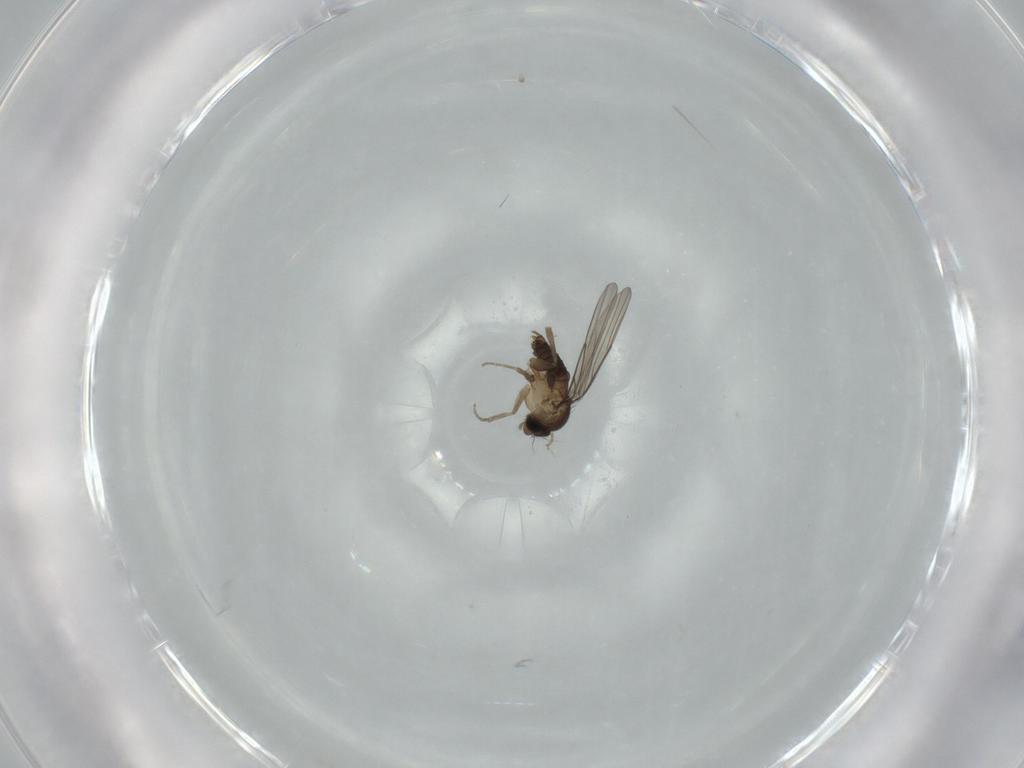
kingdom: Animalia
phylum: Arthropoda
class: Insecta
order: Diptera
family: Phoridae
